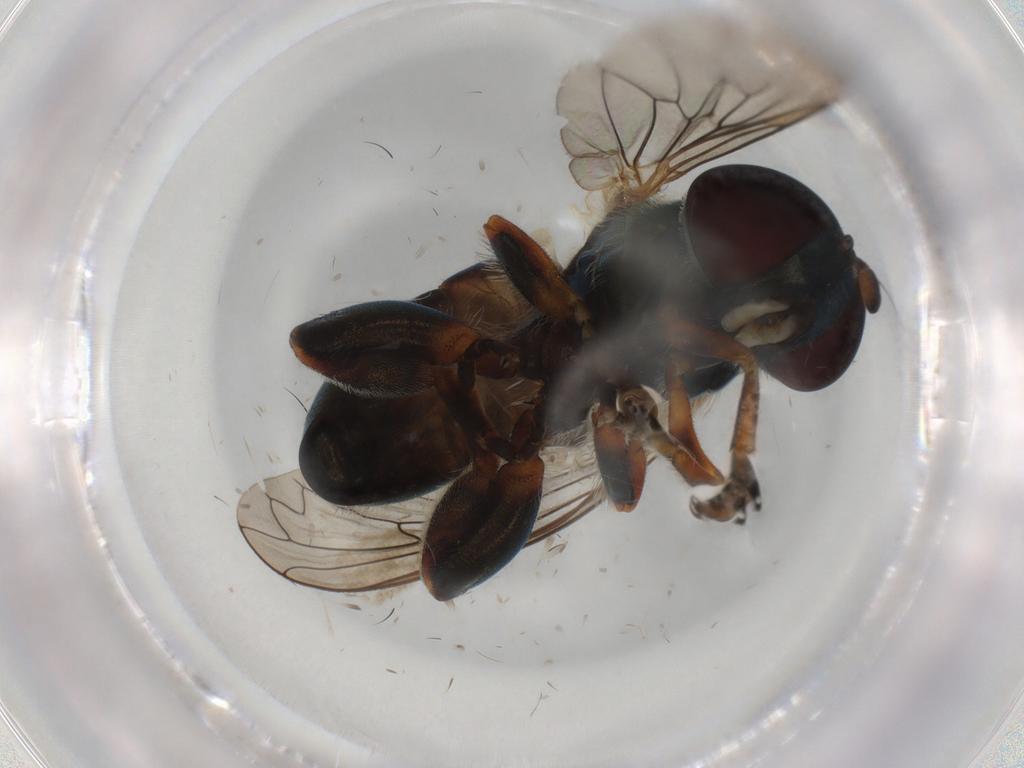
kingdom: Animalia
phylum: Arthropoda
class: Insecta
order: Diptera
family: Syrphidae
